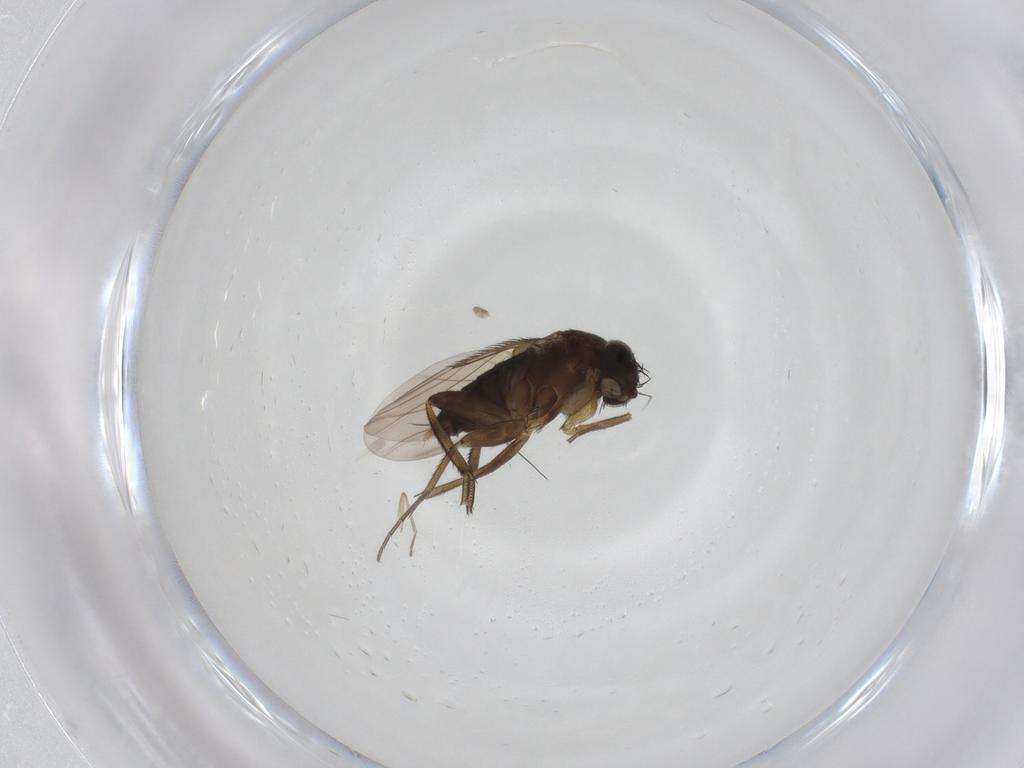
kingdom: Animalia
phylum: Arthropoda
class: Insecta
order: Diptera
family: Phoridae
